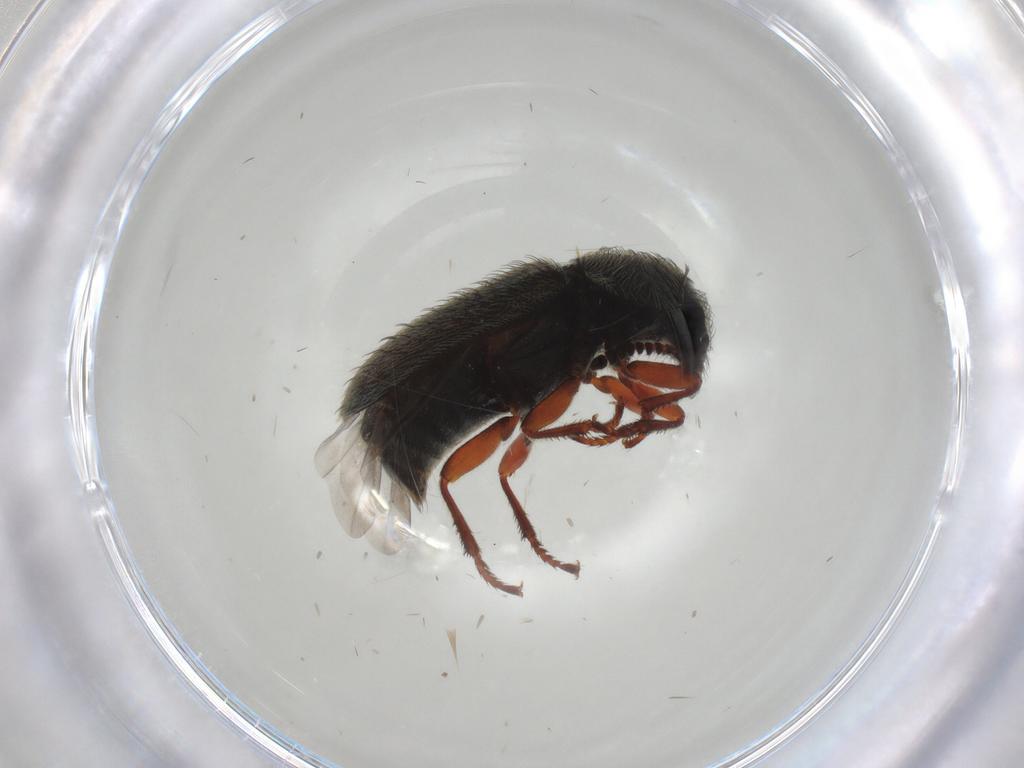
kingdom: Animalia
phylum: Arthropoda
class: Insecta
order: Coleoptera
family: Melyridae
